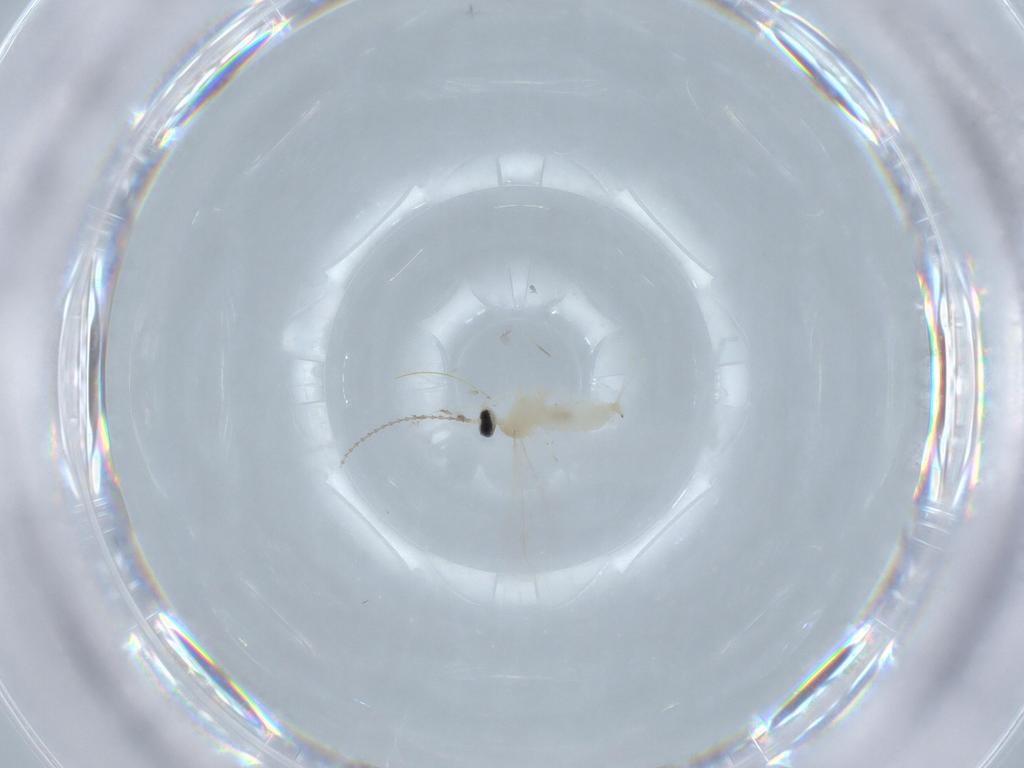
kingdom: Animalia
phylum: Arthropoda
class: Insecta
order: Diptera
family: Cecidomyiidae
